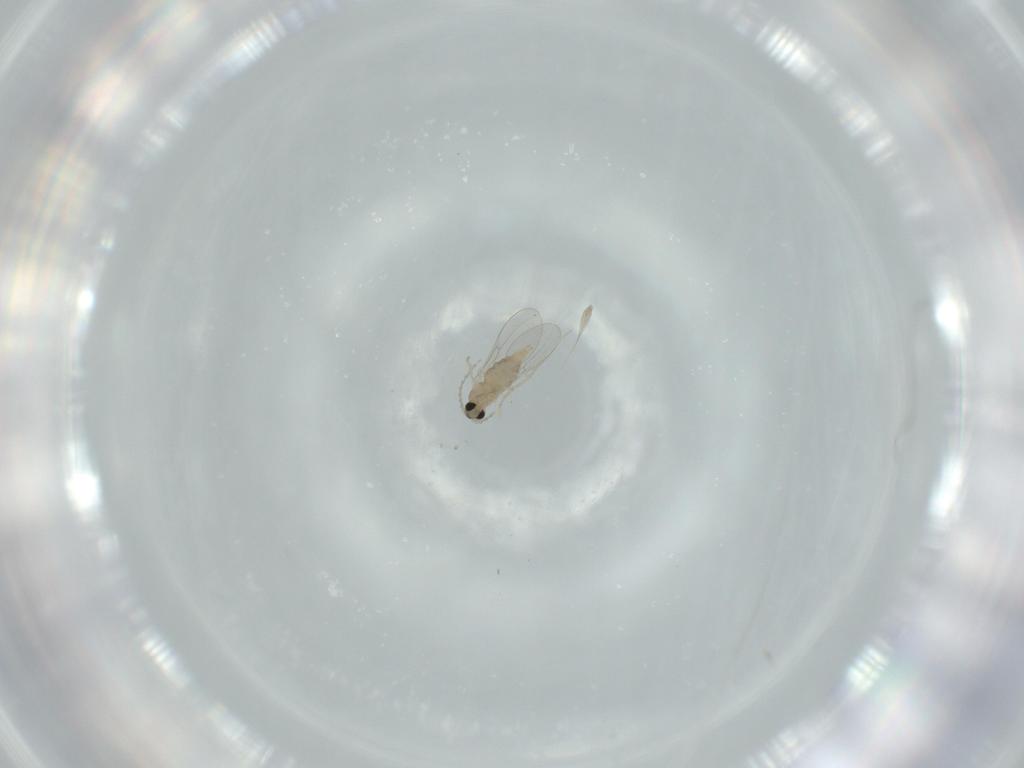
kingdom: Animalia
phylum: Arthropoda
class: Insecta
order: Diptera
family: Cecidomyiidae
